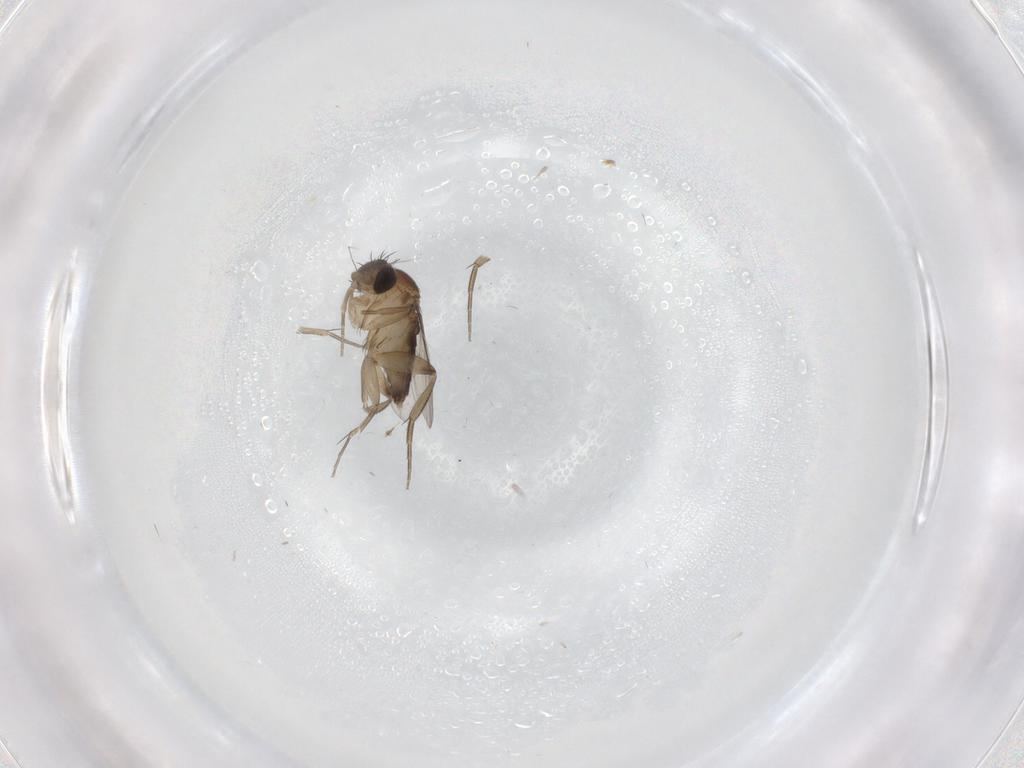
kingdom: Animalia
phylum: Arthropoda
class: Insecta
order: Diptera
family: Phoridae
